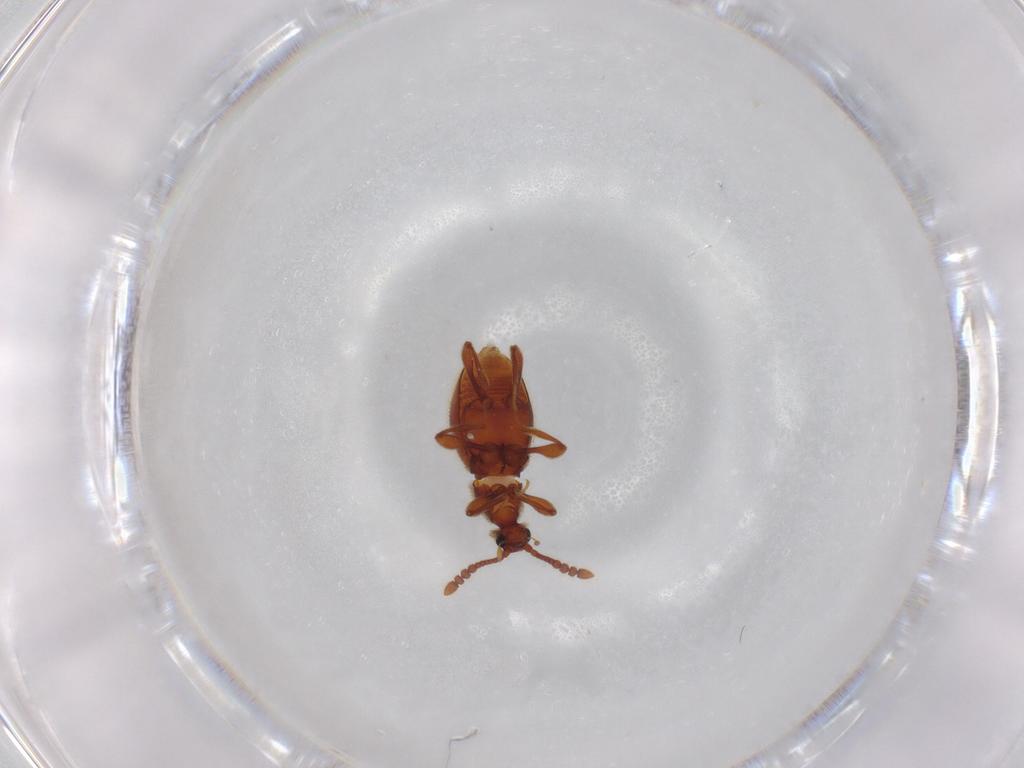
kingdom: Animalia
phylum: Arthropoda
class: Insecta
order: Coleoptera
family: Staphylinidae
